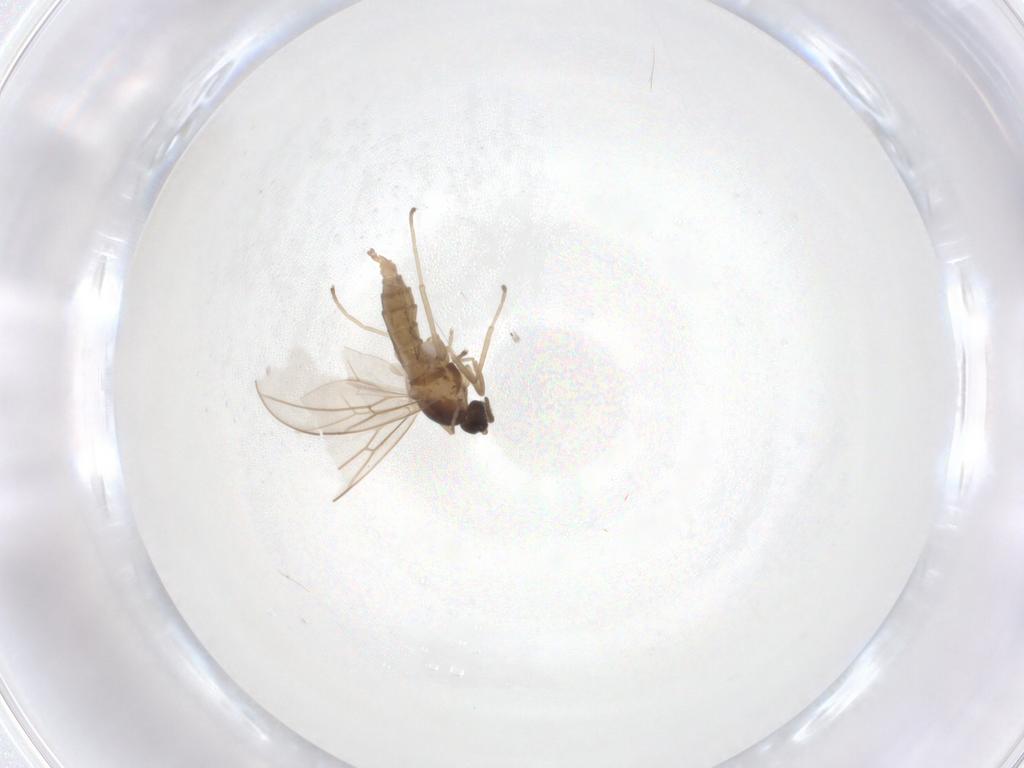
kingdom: Animalia
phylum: Arthropoda
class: Insecta
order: Diptera
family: Cecidomyiidae
